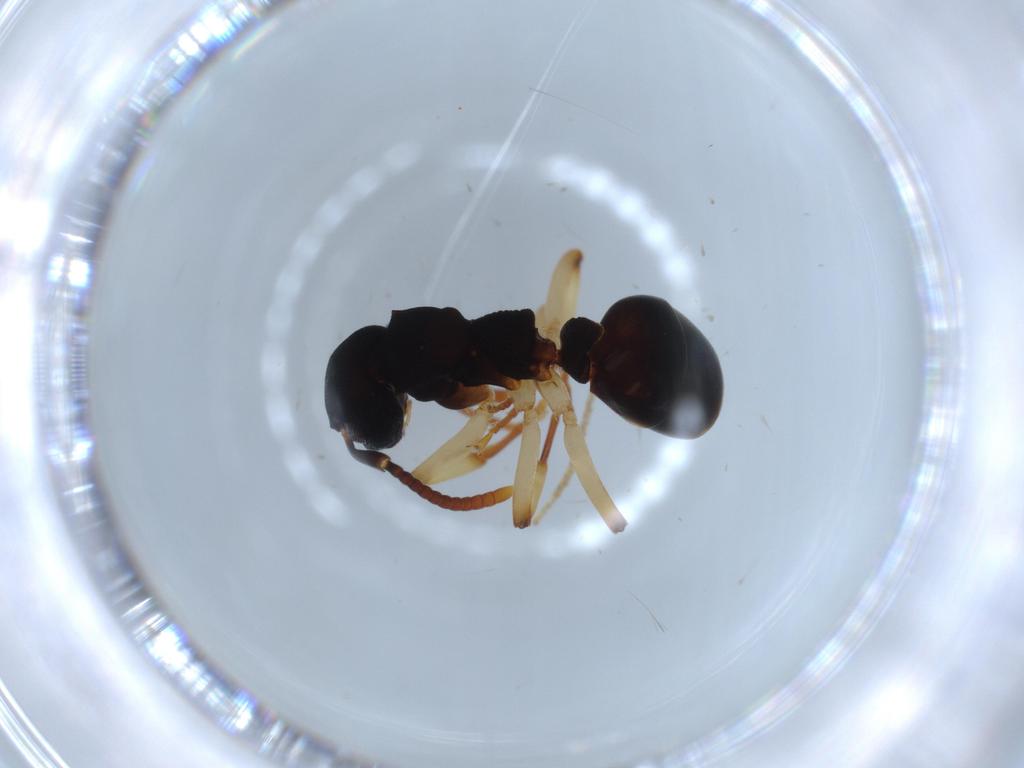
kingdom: Animalia
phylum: Arthropoda
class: Insecta
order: Hymenoptera
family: Formicidae
